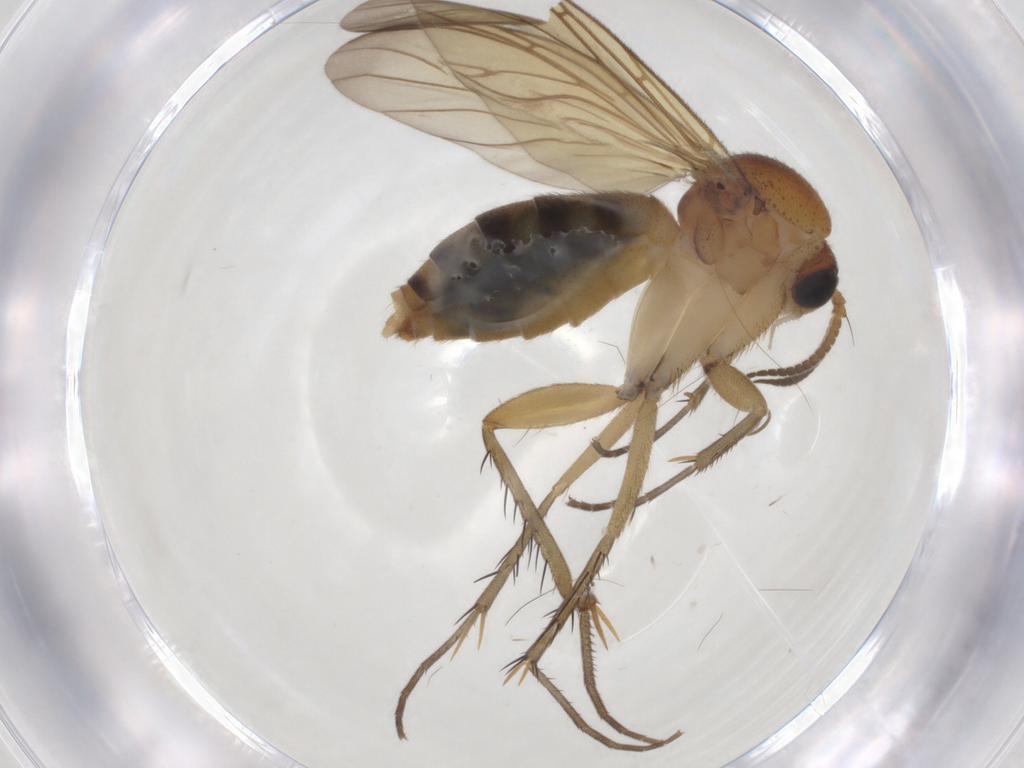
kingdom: Animalia
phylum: Arthropoda
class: Insecta
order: Diptera
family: Mycetophilidae
